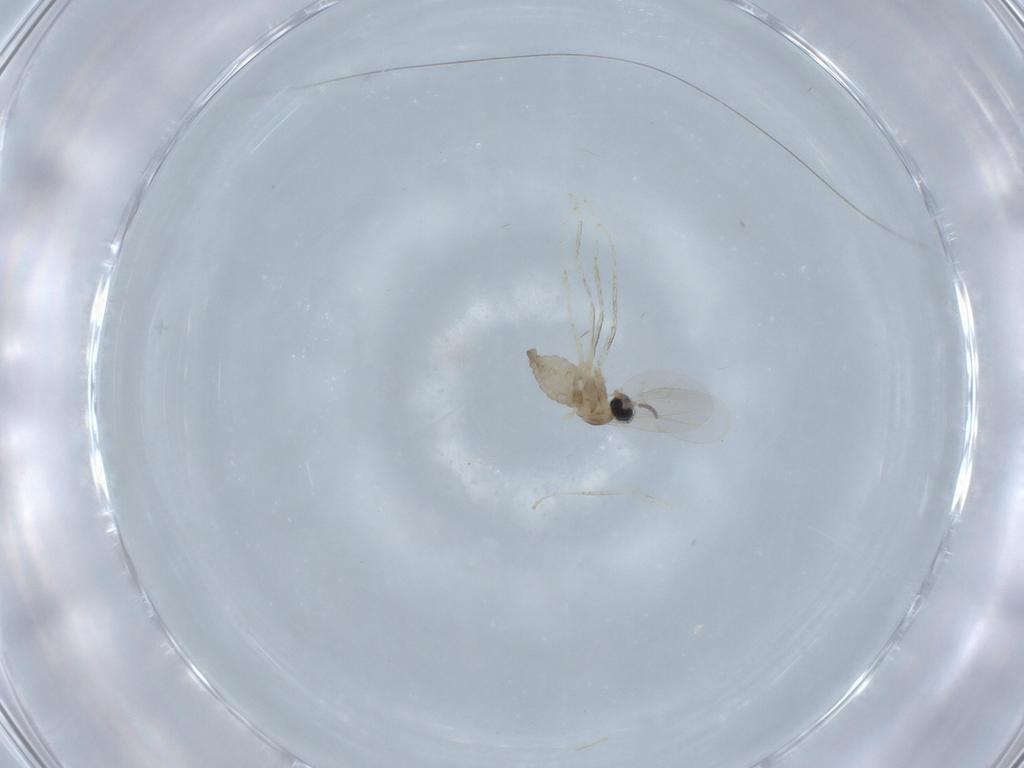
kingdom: Animalia
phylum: Arthropoda
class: Insecta
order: Diptera
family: Cecidomyiidae
